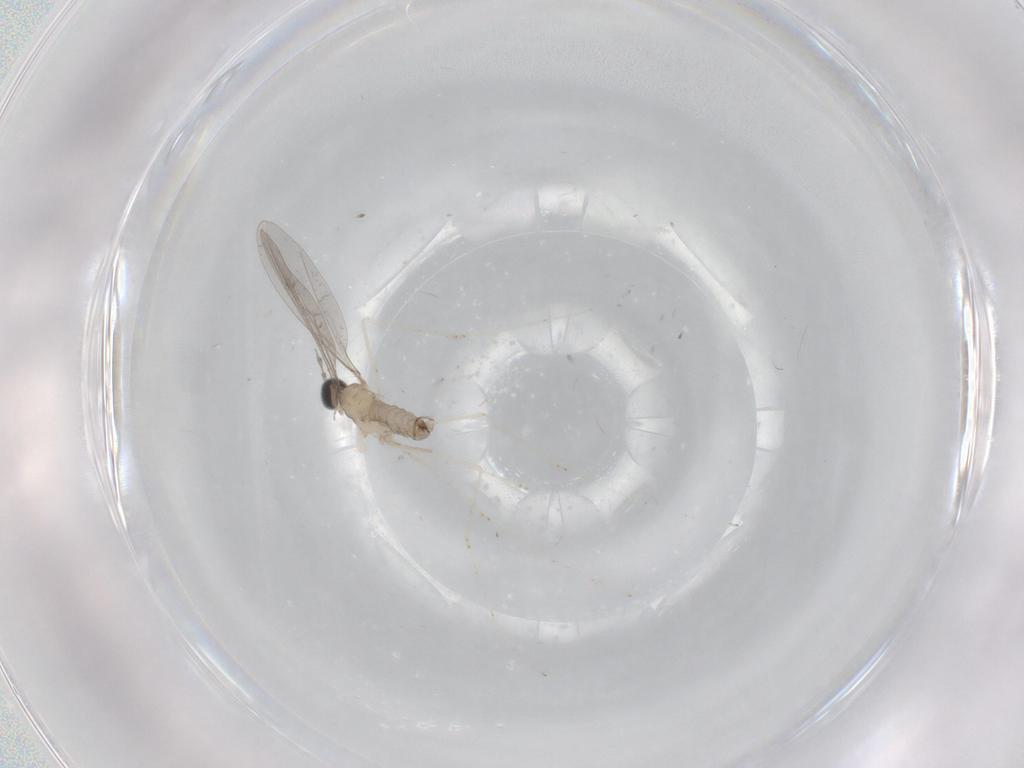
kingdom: Animalia
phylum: Arthropoda
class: Insecta
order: Diptera
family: Cecidomyiidae
